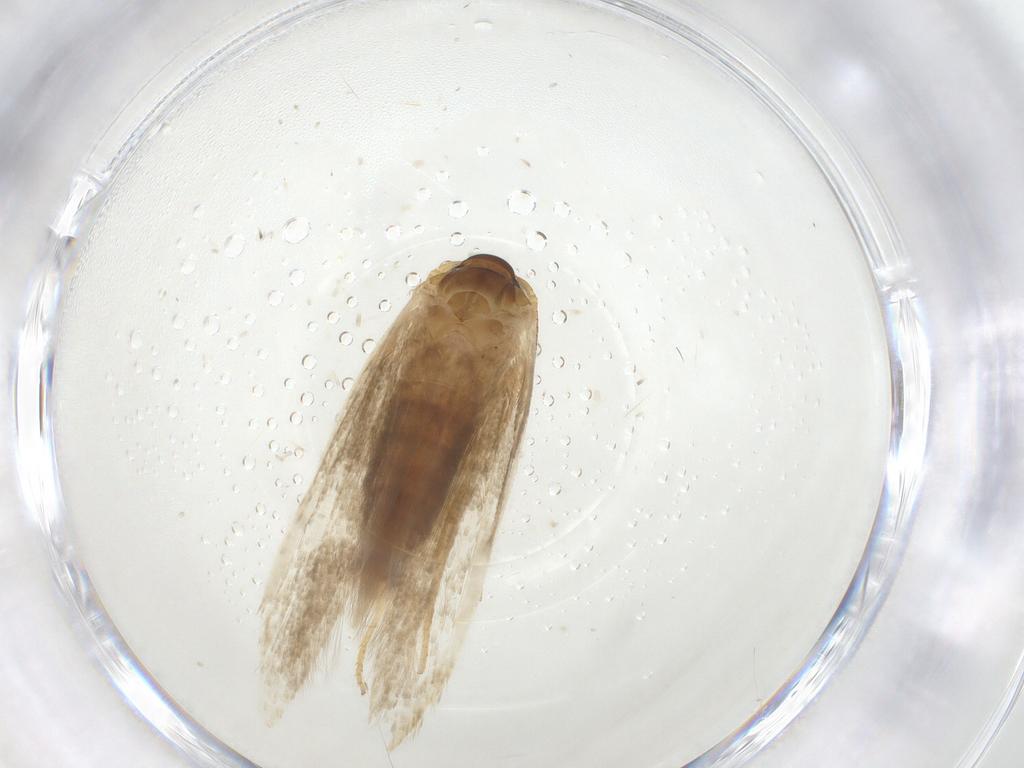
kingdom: Animalia
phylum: Arthropoda
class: Insecta
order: Lepidoptera
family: Blastobasidae
